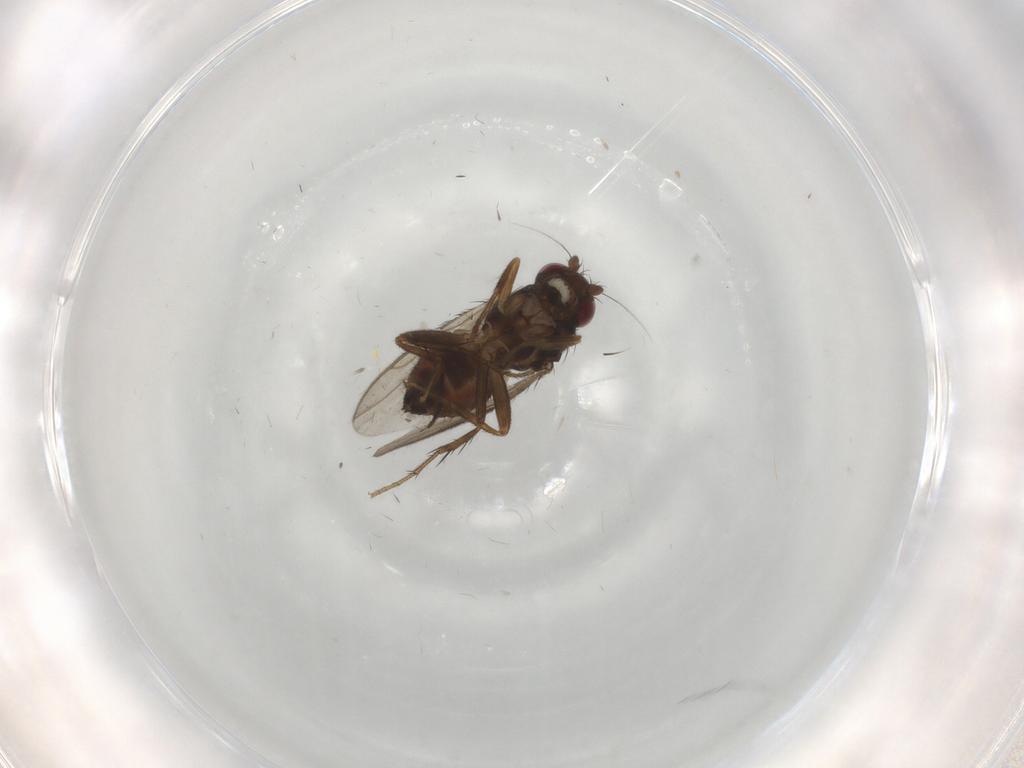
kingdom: Animalia
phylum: Arthropoda
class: Insecta
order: Diptera
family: Sciaridae
